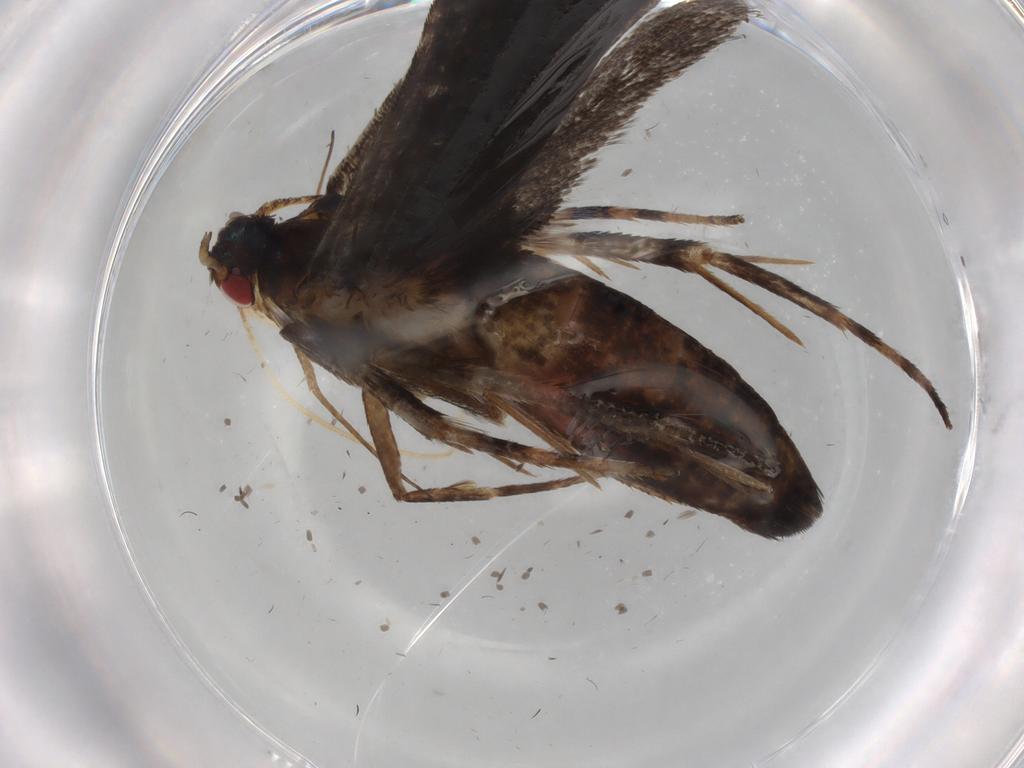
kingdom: Animalia
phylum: Arthropoda
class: Insecta
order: Lepidoptera
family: Gelechiidae
